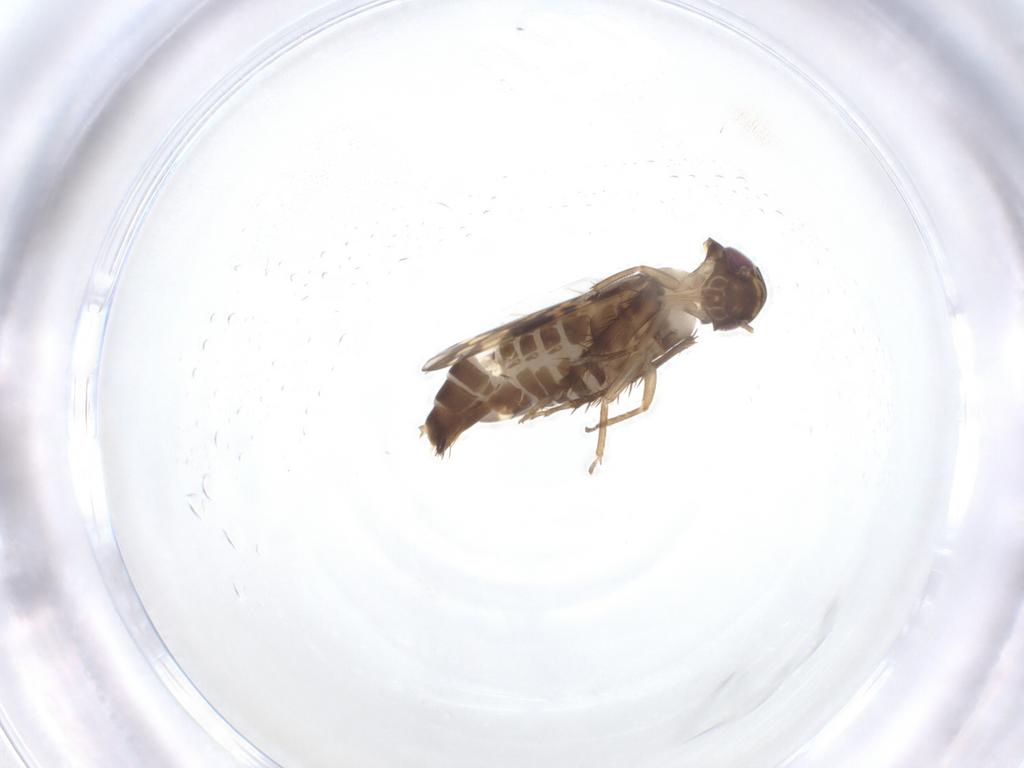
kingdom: Animalia
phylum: Arthropoda
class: Insecta
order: Hemiptera
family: Cicadellidae
